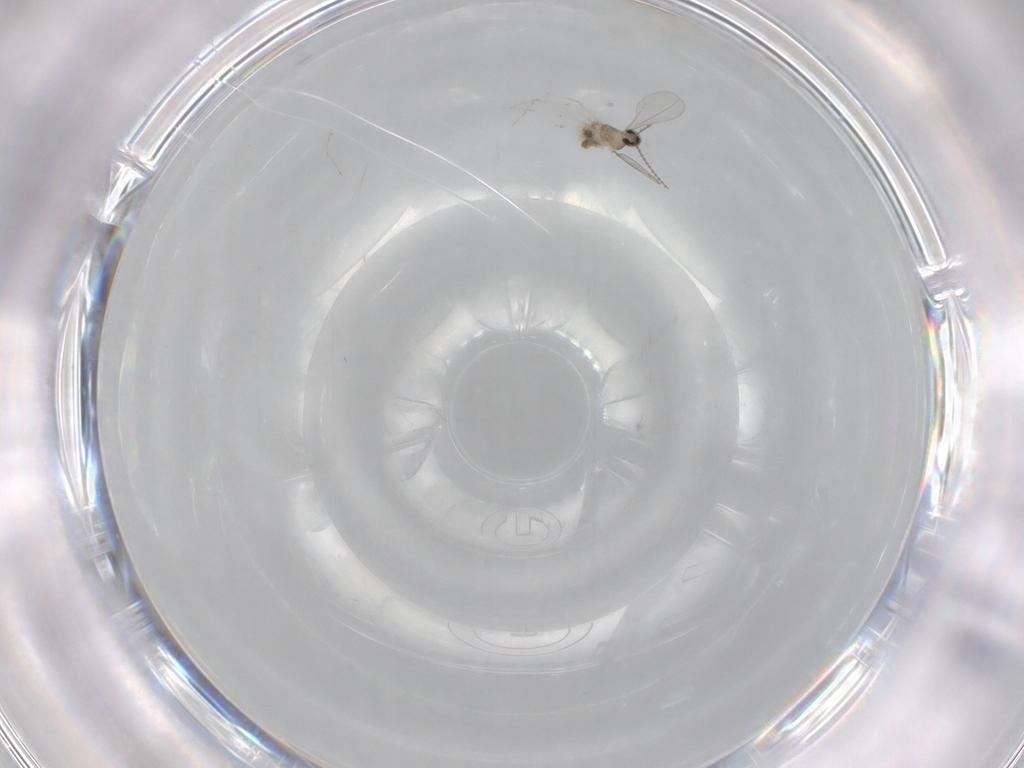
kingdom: Animalia
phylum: Arthropoda
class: Insecta
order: Diptera
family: Cecidomyiidae
